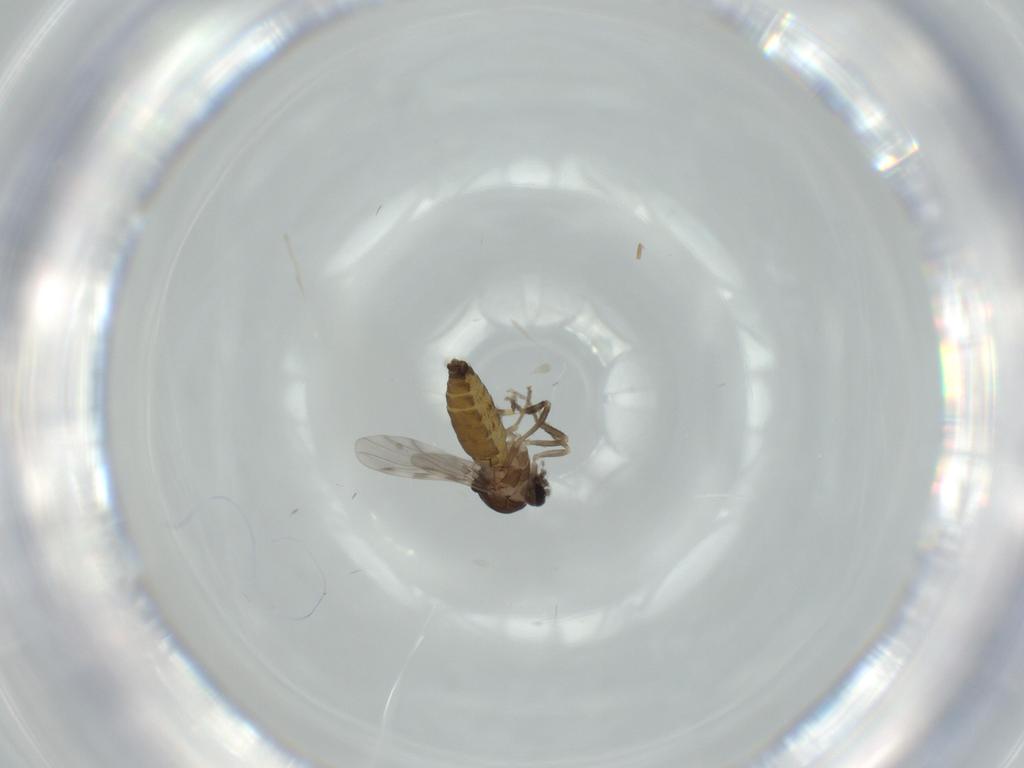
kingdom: Animalia
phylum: Arthropoda
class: Insecta
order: Diptera
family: Ceratopogonidae
